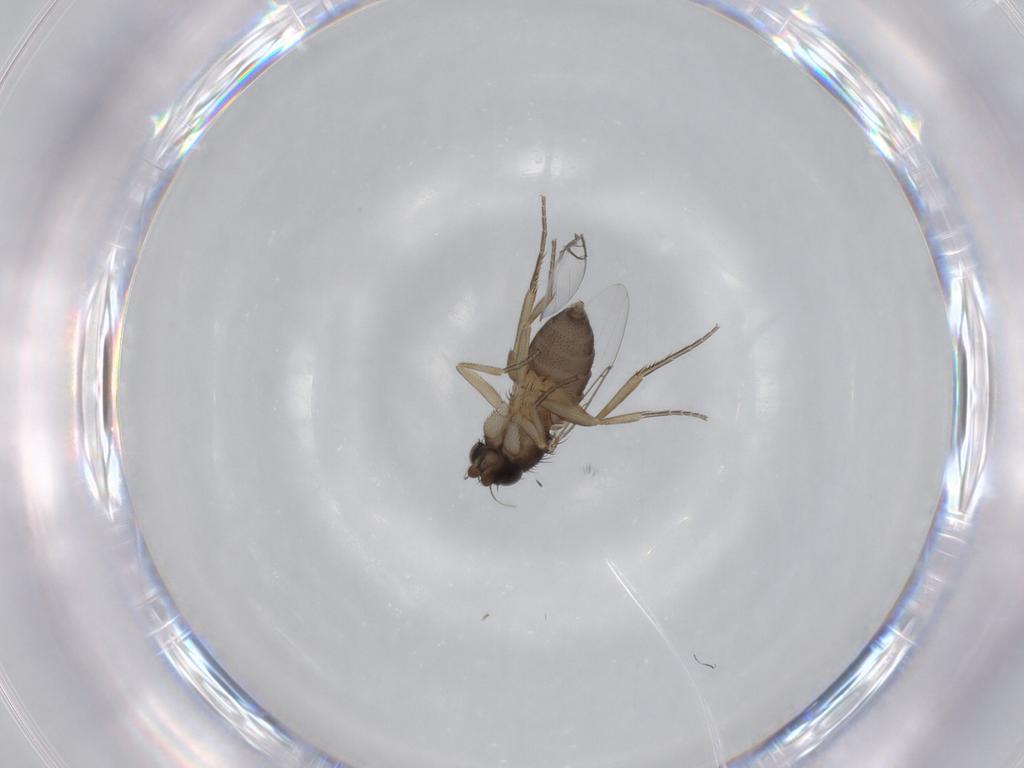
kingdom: Animalia
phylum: Arthropoda
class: Insecta
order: Diptera
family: Phoridae
